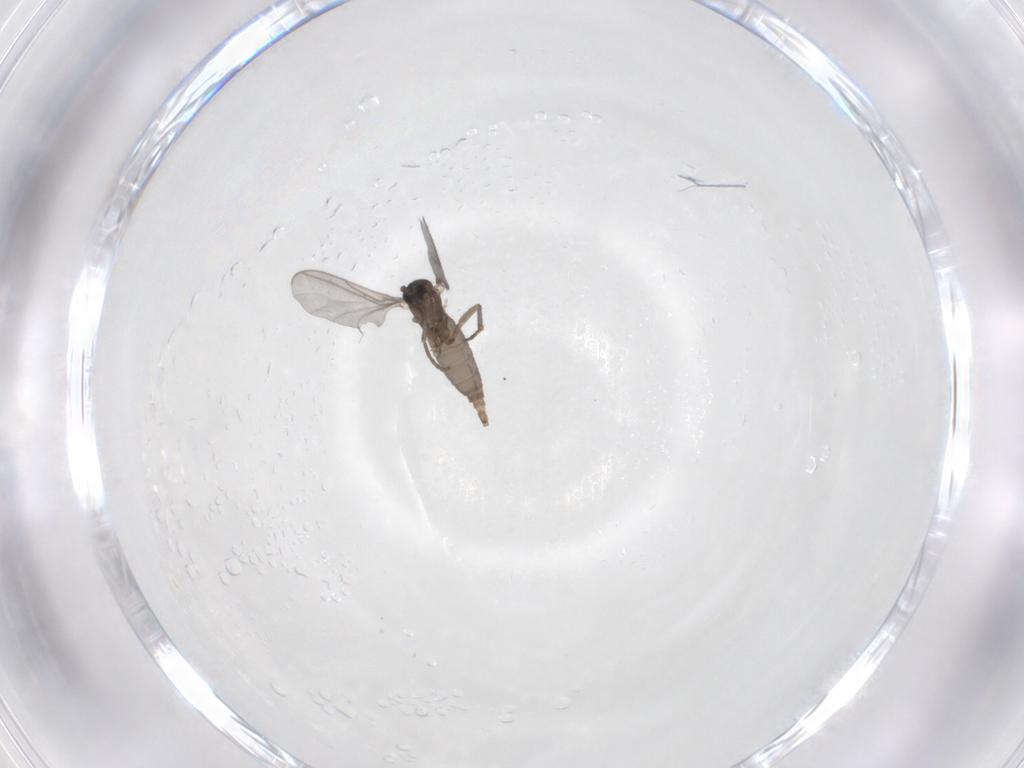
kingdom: Animalia
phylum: Arthropoda
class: Insecta
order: Diptera
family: Sciaridae
